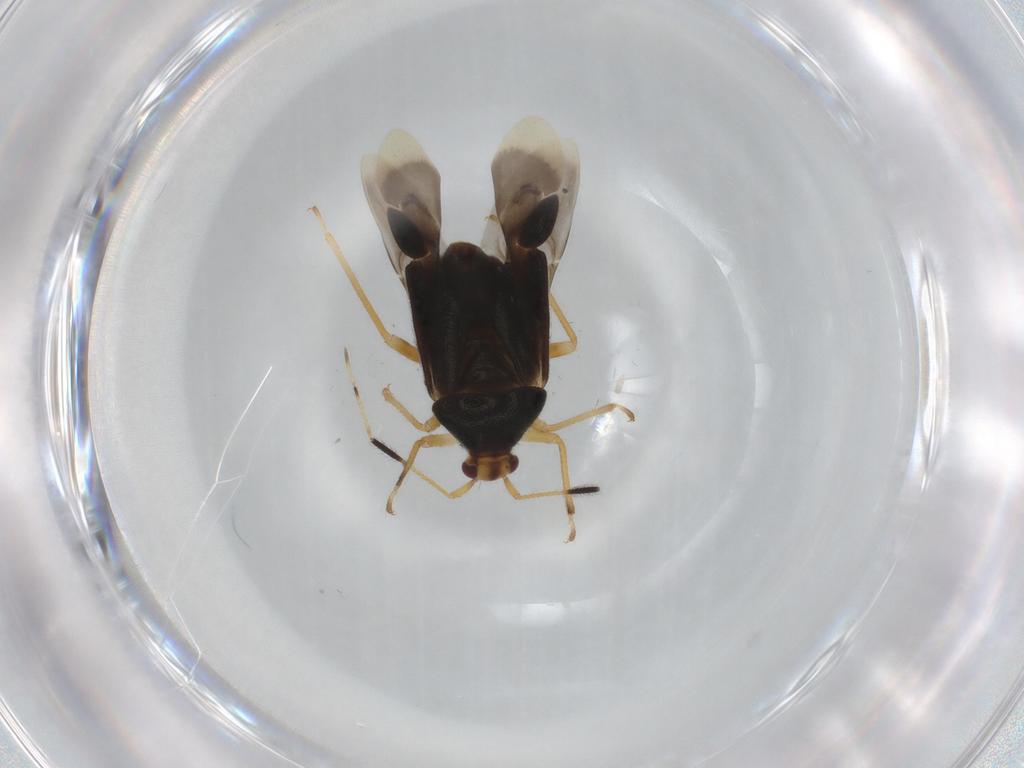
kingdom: Animalia
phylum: Arthropoda
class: Insecta
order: Hemiptera
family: Miridae
